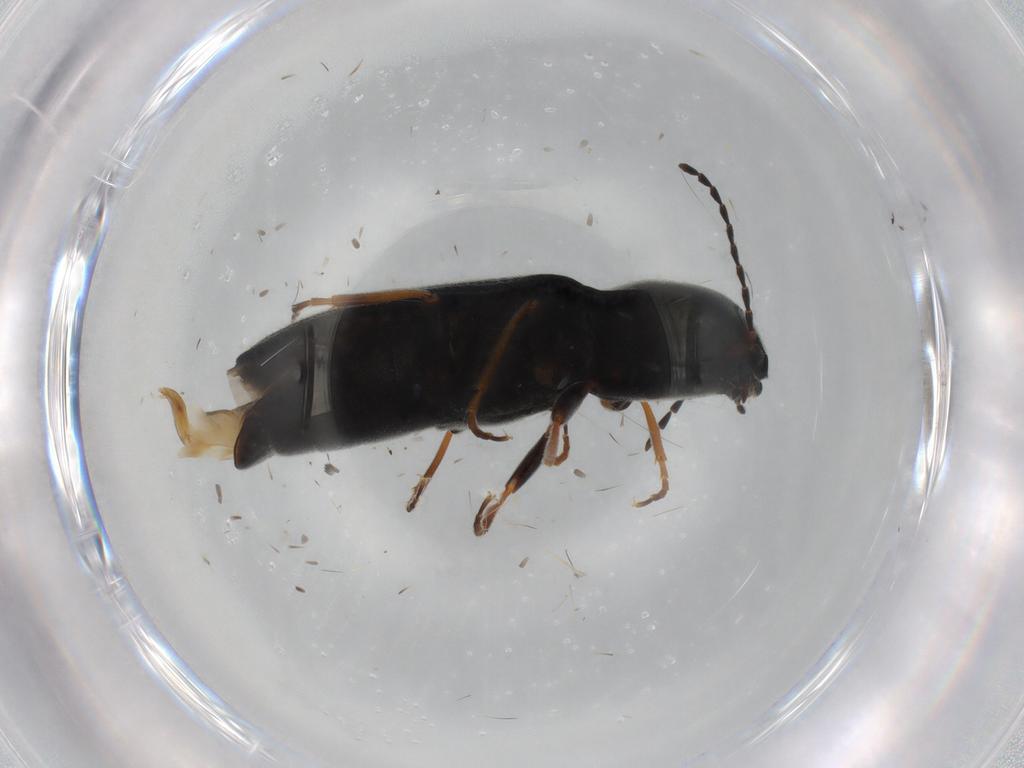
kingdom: Animalia
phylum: Arthropoda
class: Insecta
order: Coleoptera
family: Elateridae
